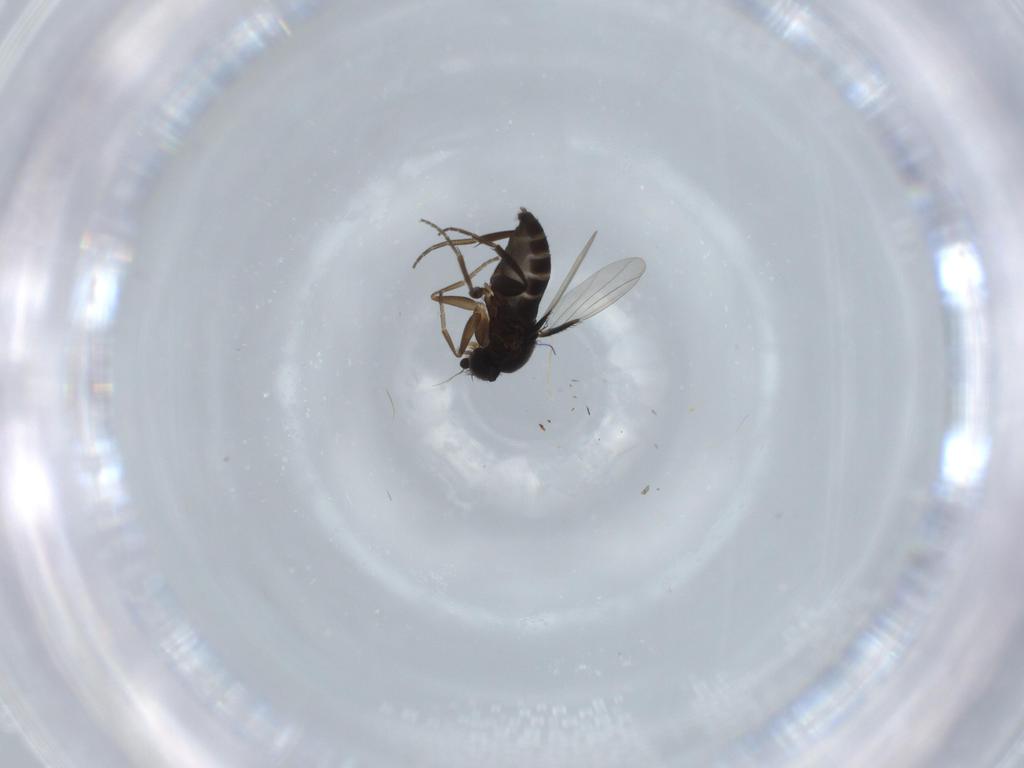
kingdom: Animalia
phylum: Arthropoda
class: Insecta
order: Diptera
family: Phoridae
